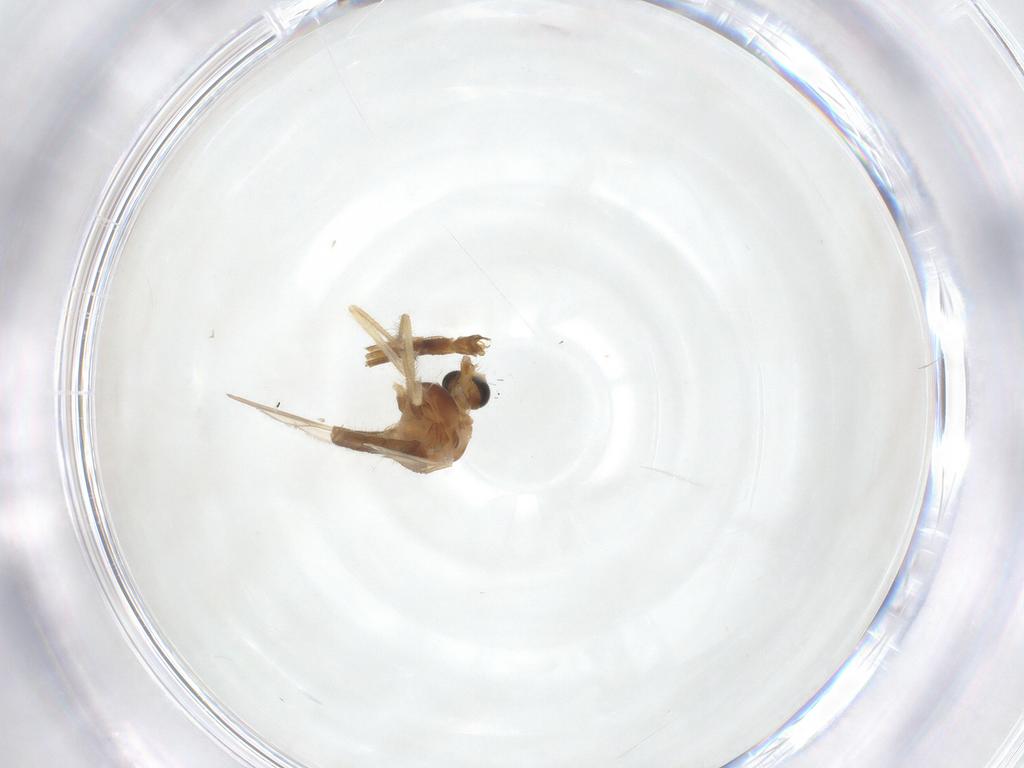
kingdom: Animalia
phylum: Arthropoda
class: Insecta
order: Diptera
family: Chironomidae
